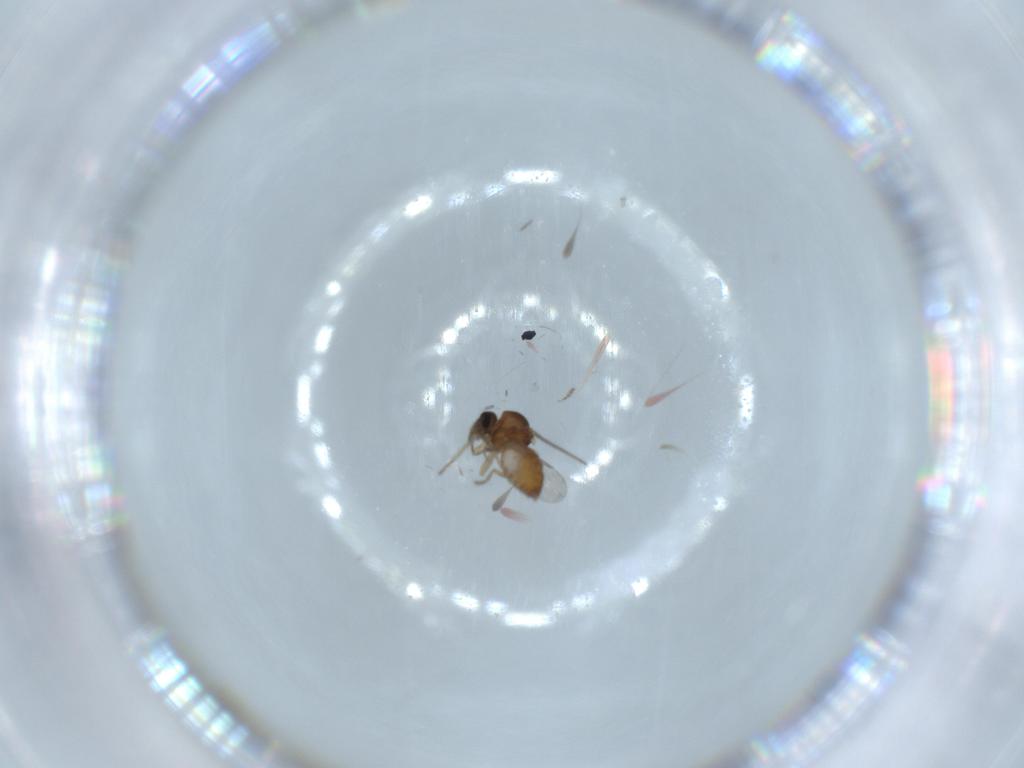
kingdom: Animalia
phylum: Arthropoda
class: Insecta
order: Diptera
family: Ceratopogonidae
